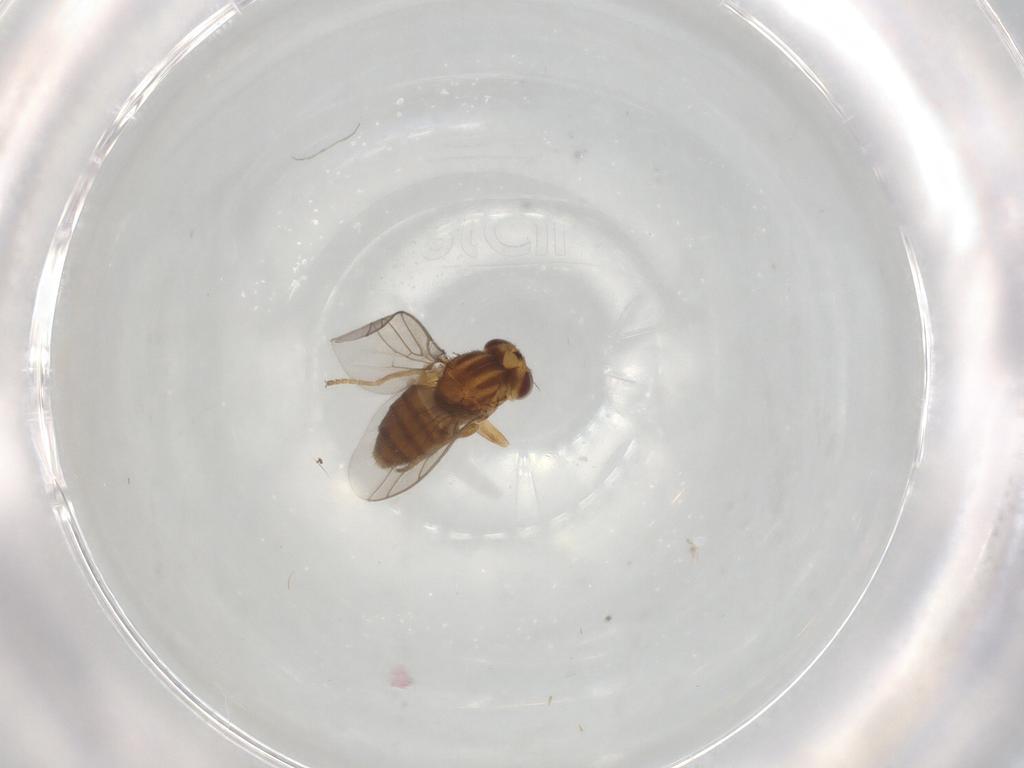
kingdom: Animalia
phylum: Arthropoda
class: Insecta
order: Diptera
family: Chloropidae
